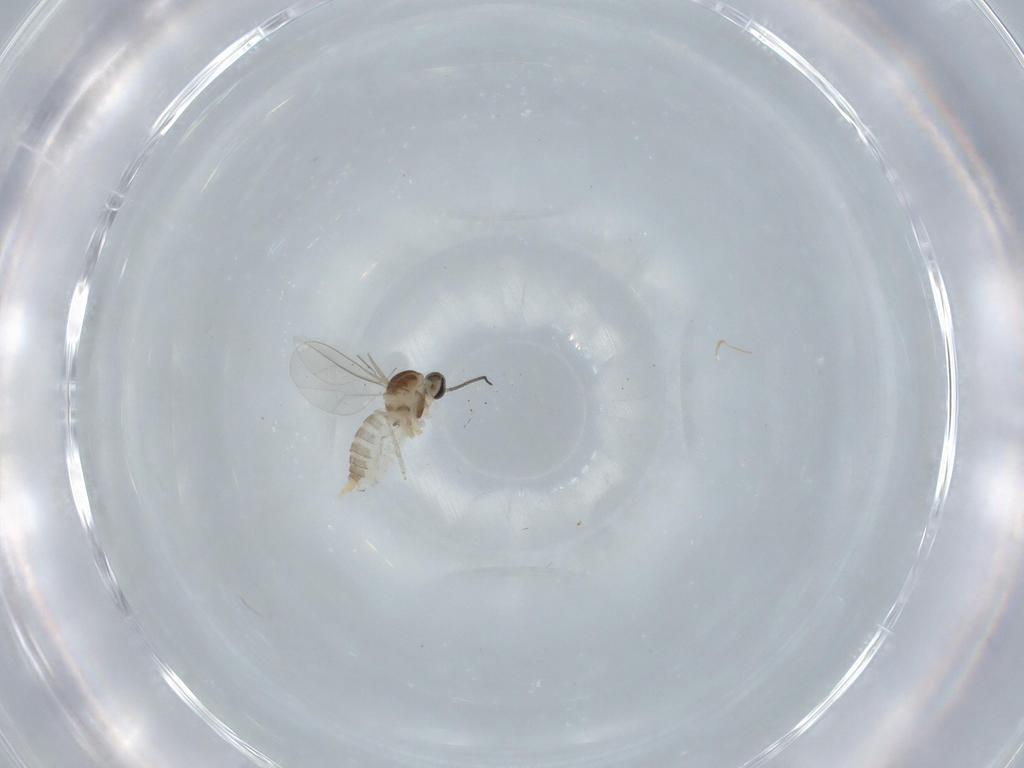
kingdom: Animalia
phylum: Arthropoda
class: Insecta
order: Diptera
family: Cecidomyiidae
